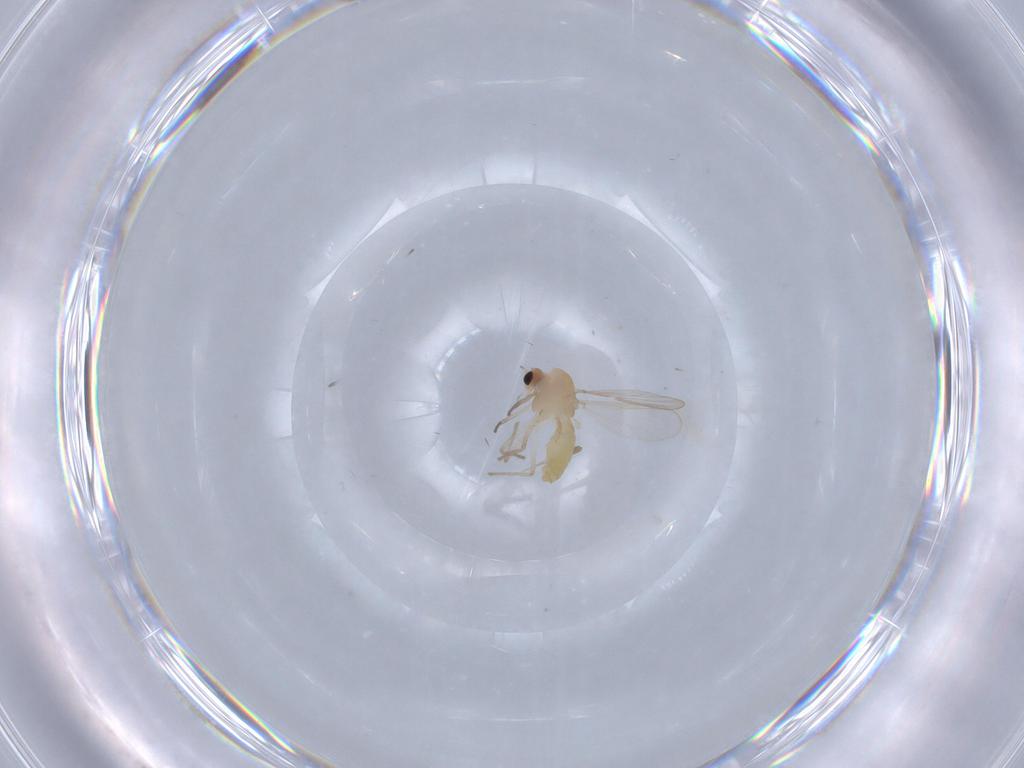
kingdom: Animalia
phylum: Arthropoda
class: Insecta
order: Diptera
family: Chironomidae
